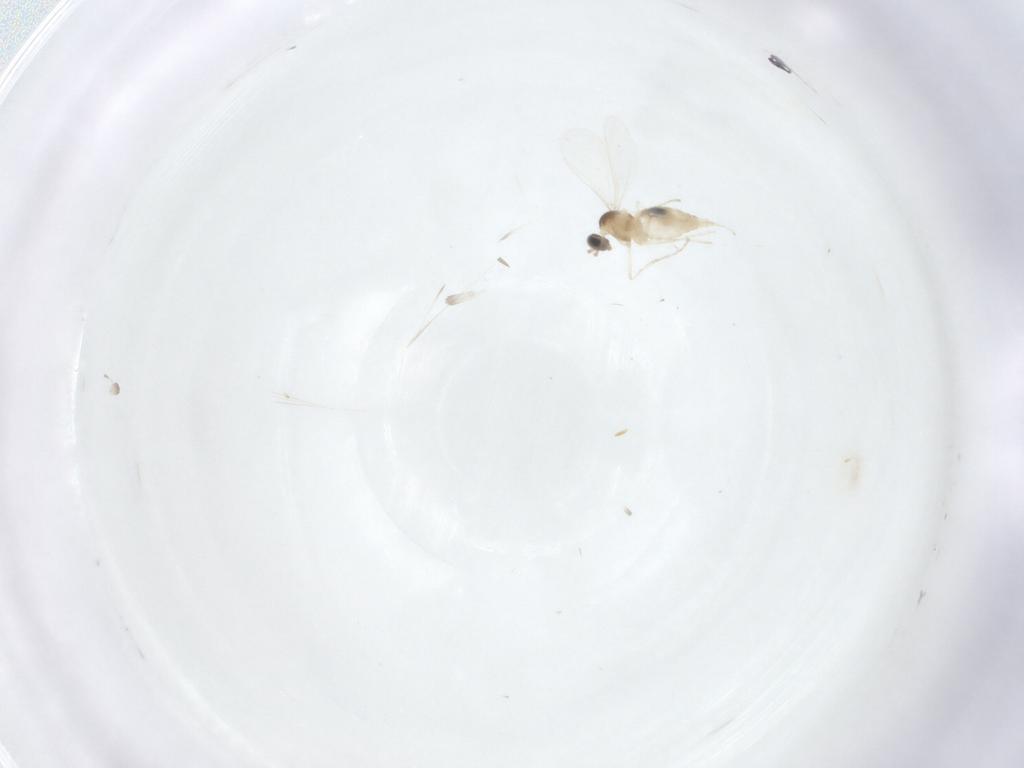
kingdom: Animalia
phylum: Arthropoda
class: Insecta
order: Diptera
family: Cecidomyiidae
